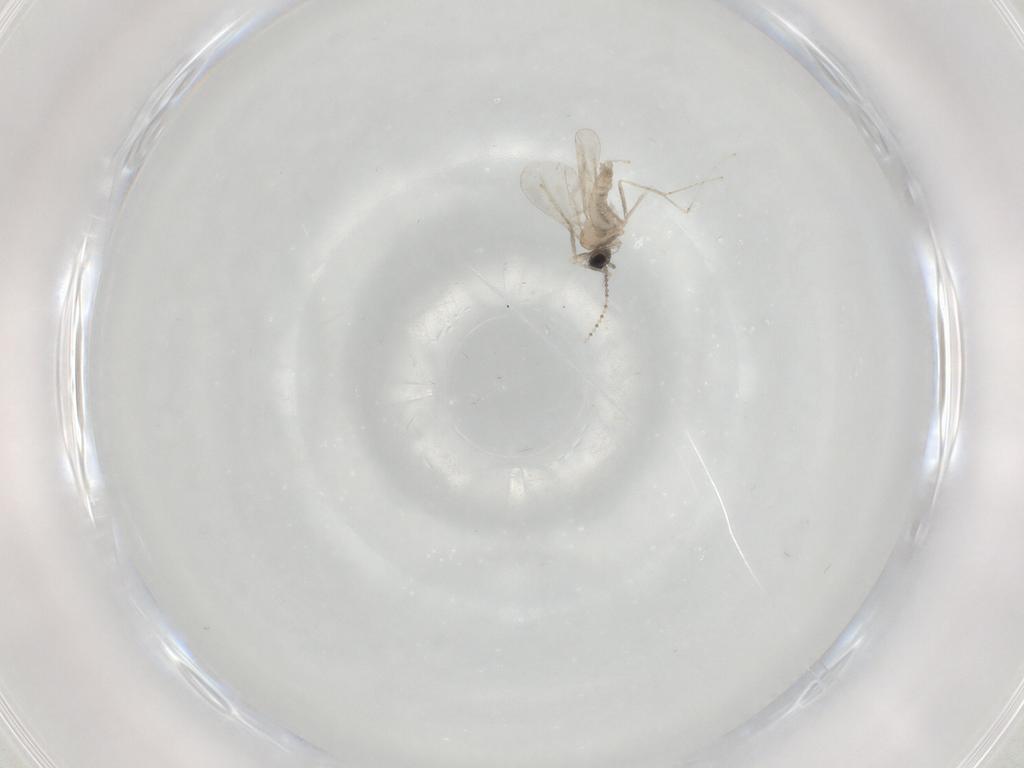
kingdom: Animalia
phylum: Arthropoda
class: Insecta
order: Diptera
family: Cecidomyiidae
